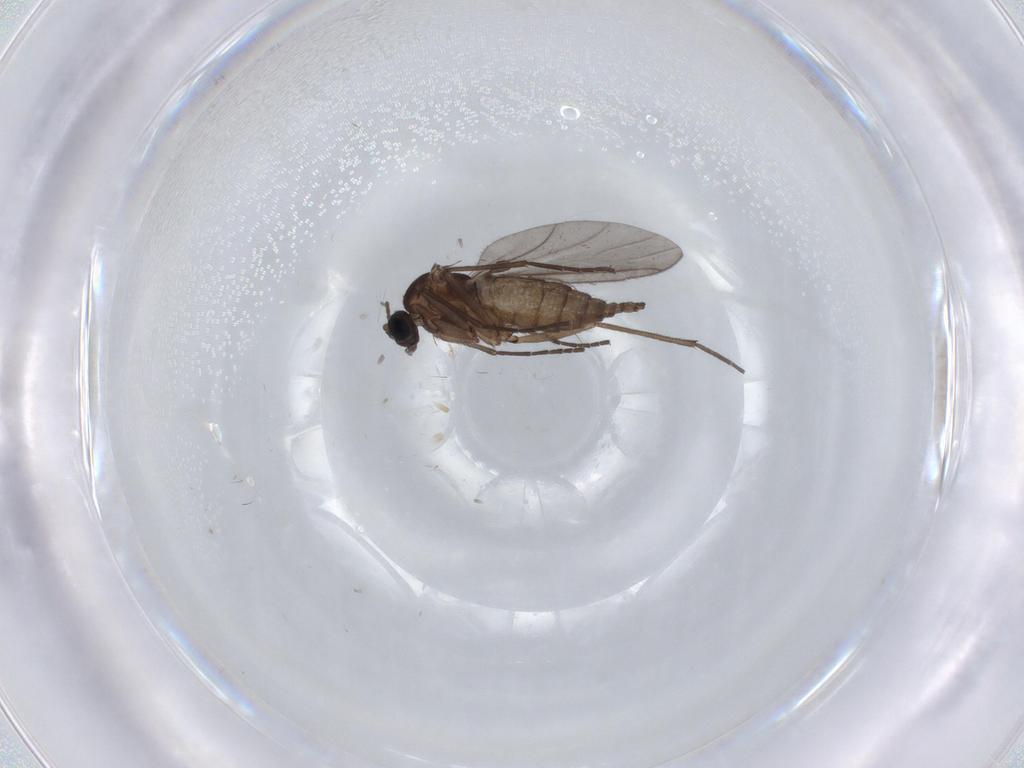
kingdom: Animalia
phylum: Arthropoda
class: Insecta
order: Diptera
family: Sciaridae
